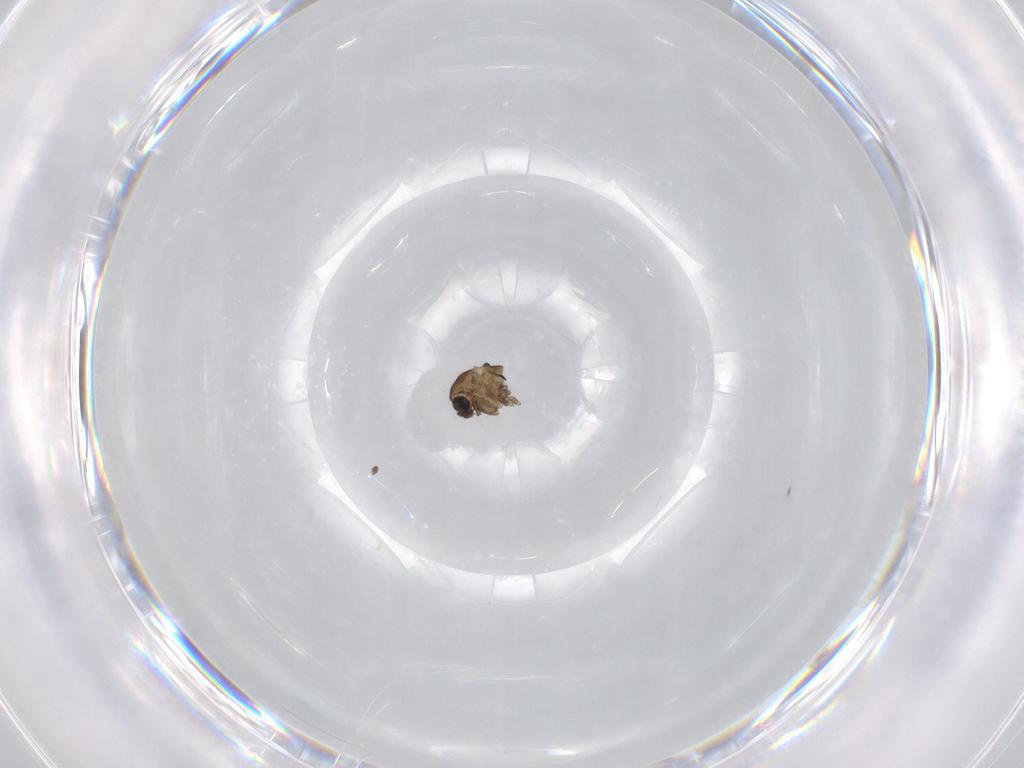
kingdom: Animalia
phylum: Arthropoda
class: Insecta
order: Diptera
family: Chironomidae
